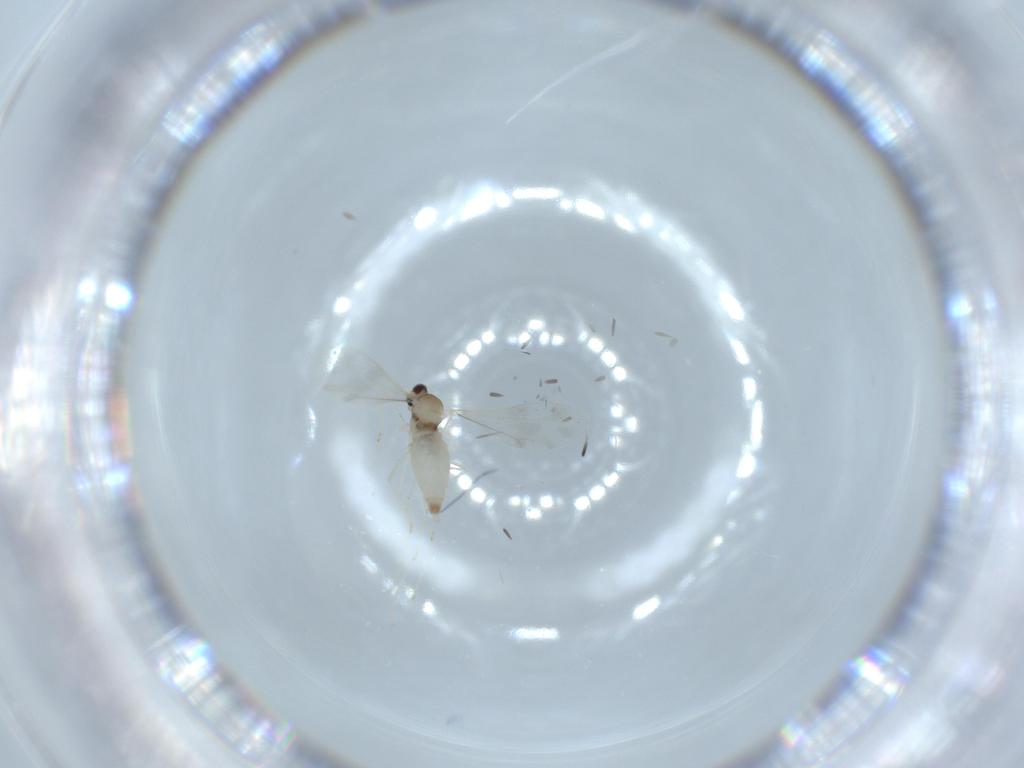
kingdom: Animalia
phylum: Arthropoda
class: Insecta
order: Diptera
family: Cecidomyiidae
